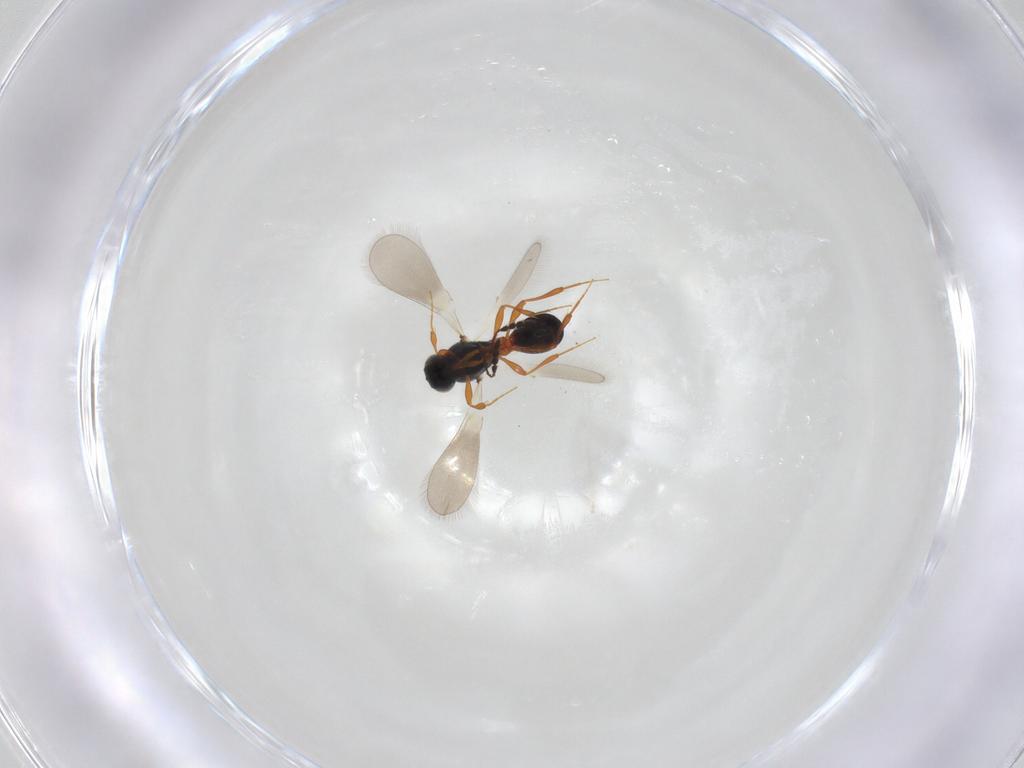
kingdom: Animalia
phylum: Arthropoda
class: Insecta
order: Hymenoptera
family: Platygastridae
